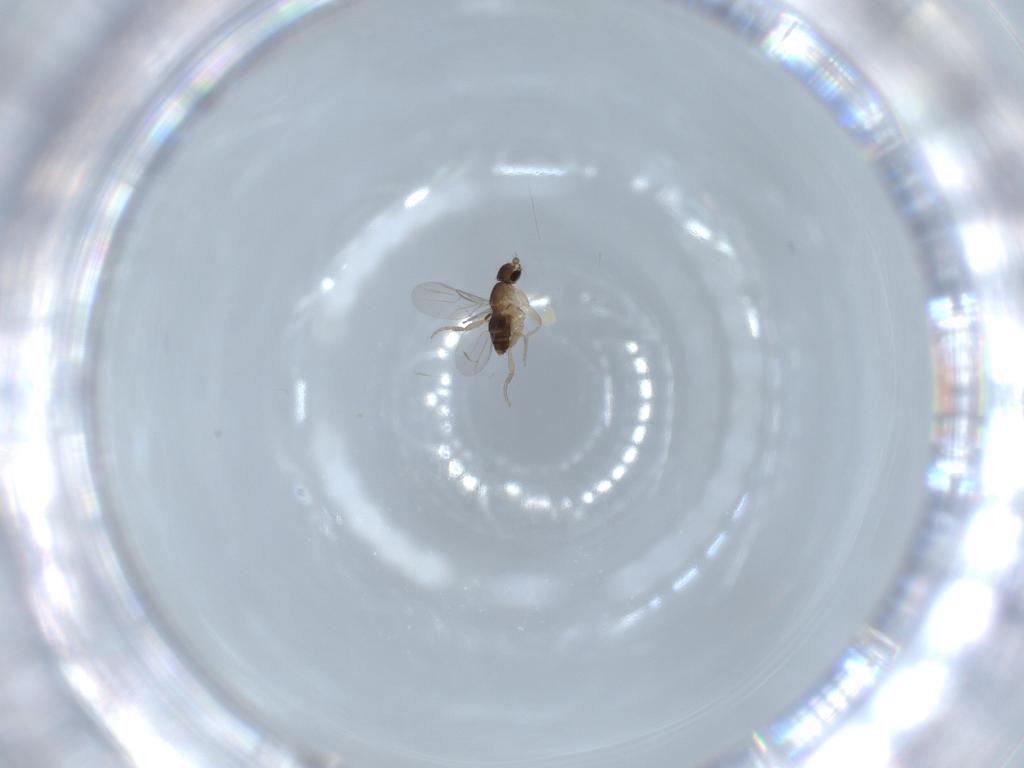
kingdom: Animalia
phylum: Arthropoda
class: Insecta
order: Diptera
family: Phoridae
